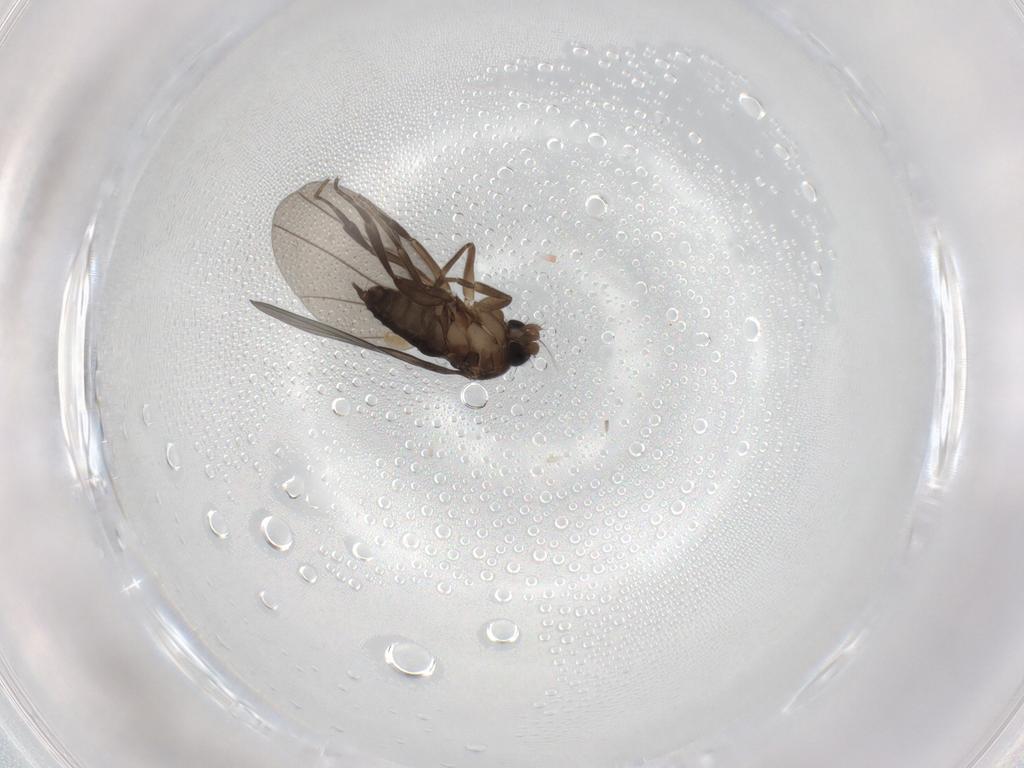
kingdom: Animalia
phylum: Arthropoda
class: Insecta
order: Diptera
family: Phoridae
